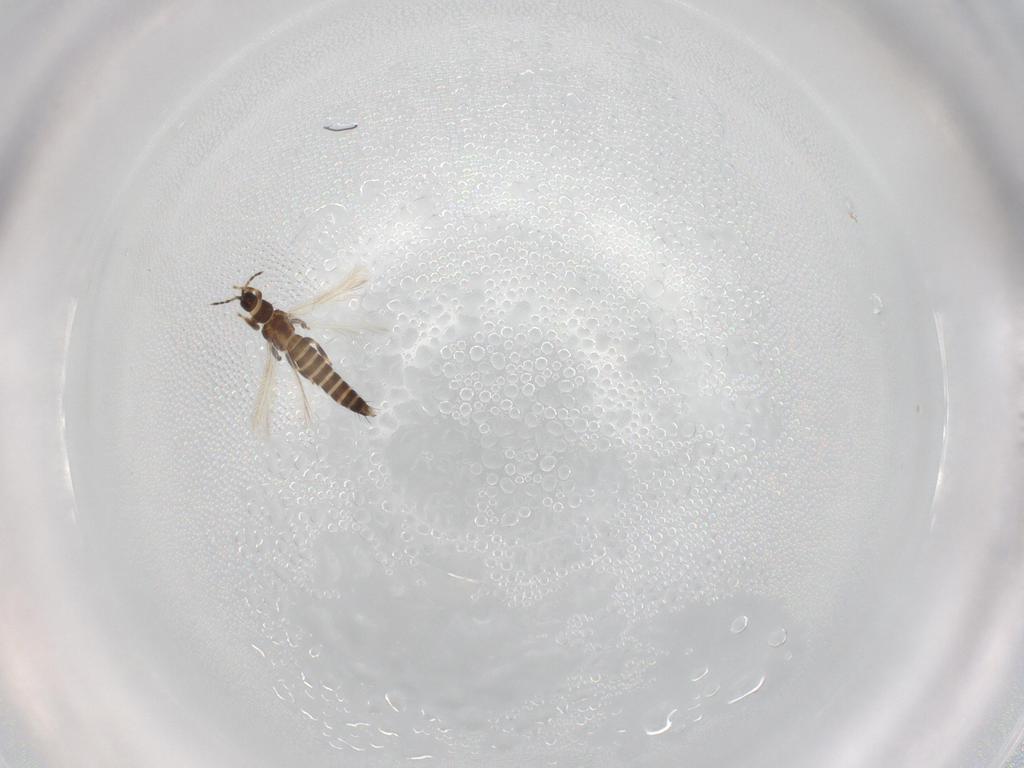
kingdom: Animalia
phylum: Arthropoda
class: Insecta
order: Thysanoptera
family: Thripidae
